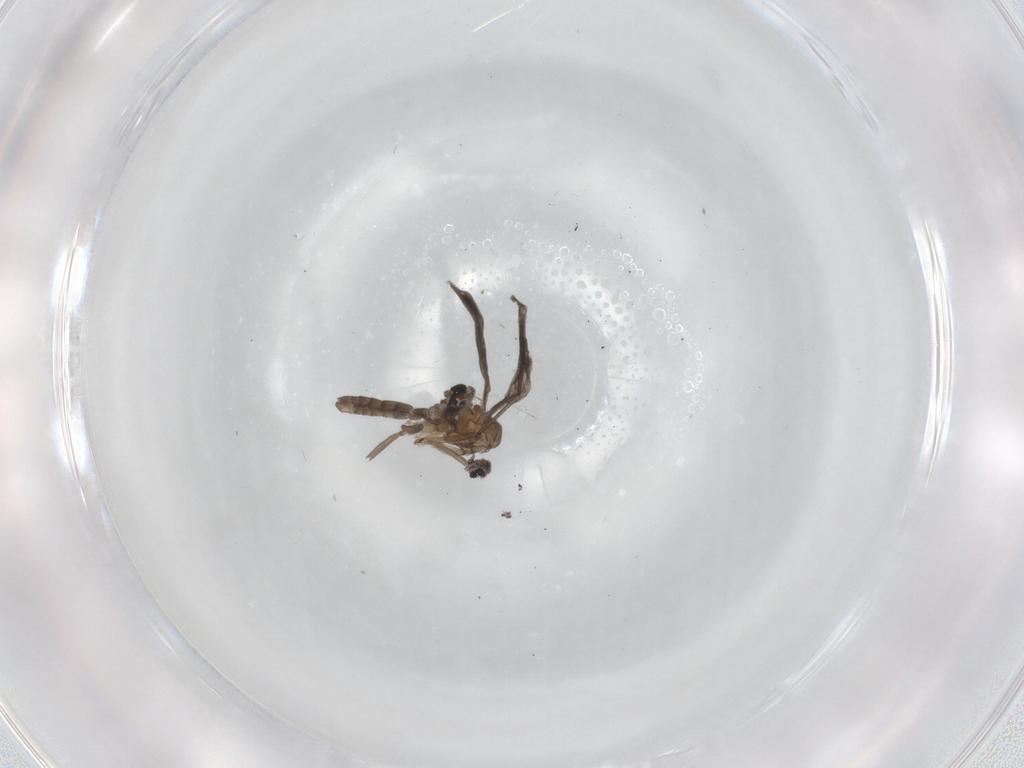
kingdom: Animalia
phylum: Arthropoda
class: Insecta
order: Diptera
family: Sciaridae
